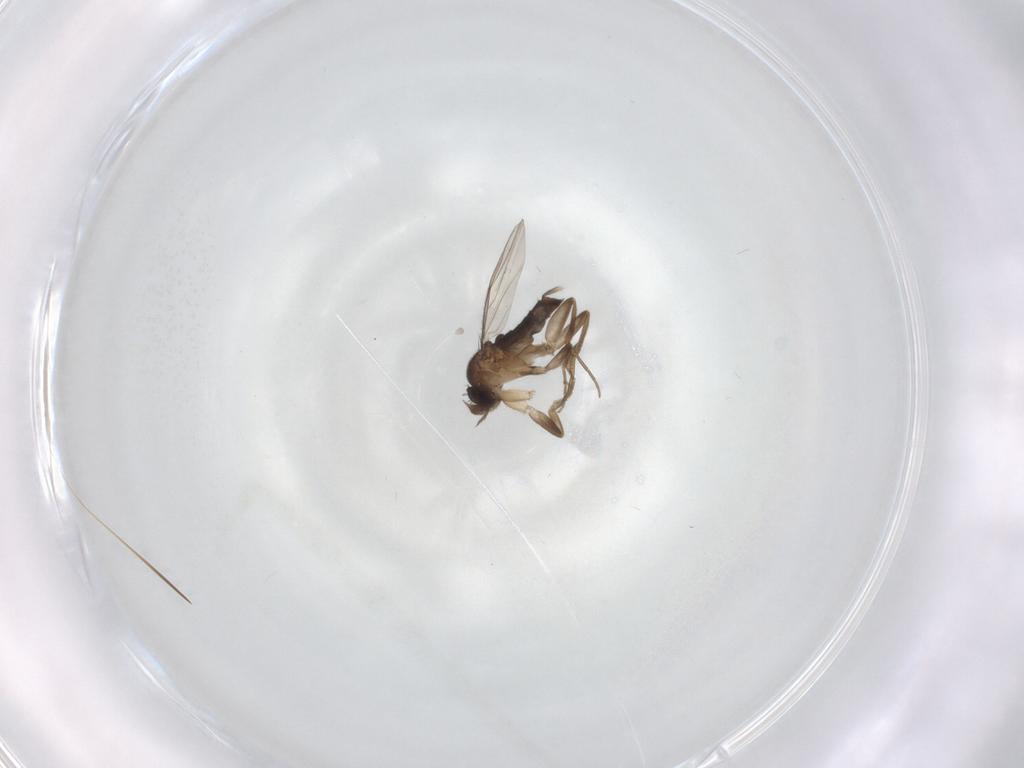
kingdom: Animalia
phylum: Arthropoda
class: Insecta
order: Diptera
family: Phoridae
